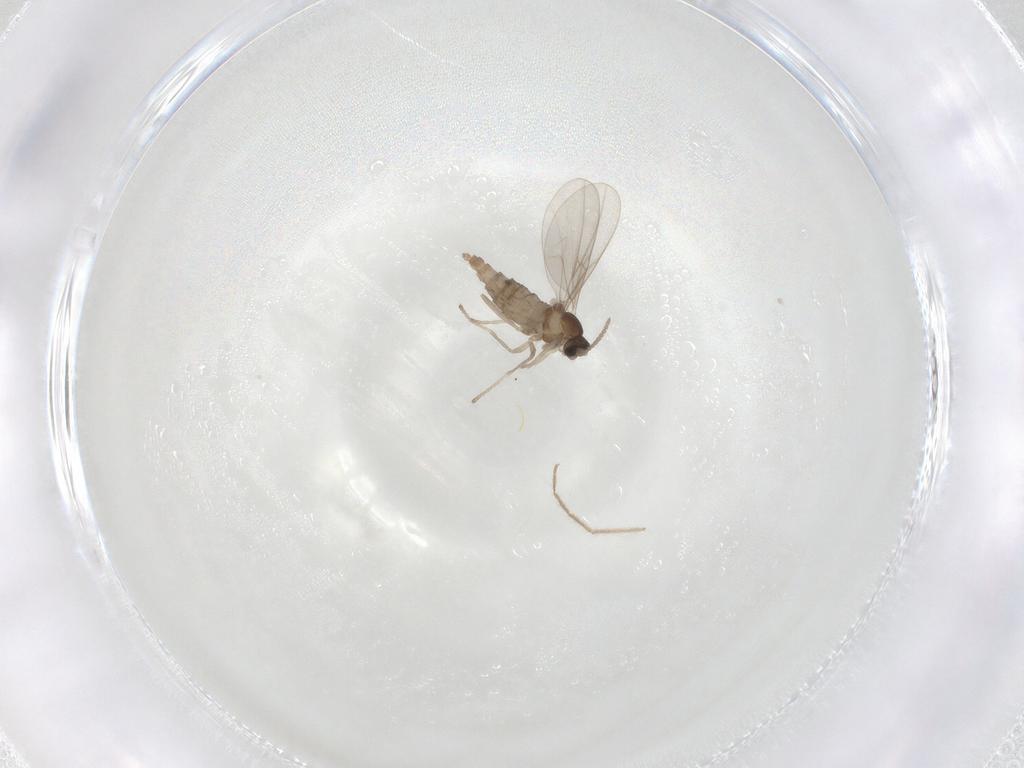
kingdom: Animalia
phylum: Arthropoda
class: Insecta
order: Diptera
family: Cecidomyiidae
